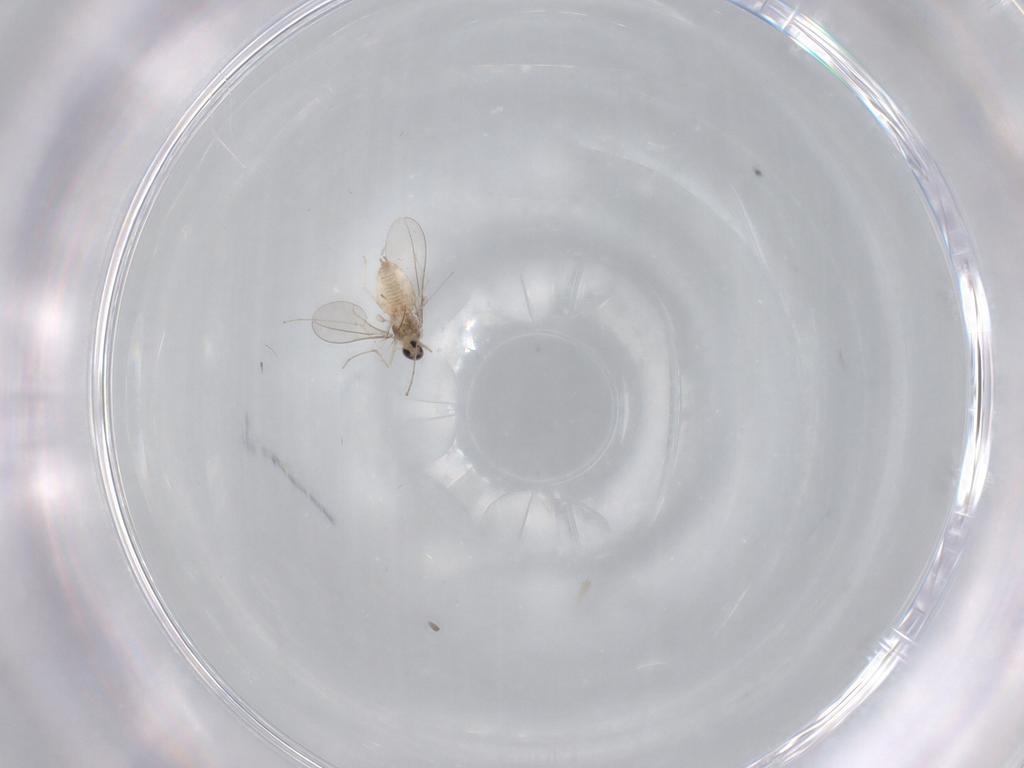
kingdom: Animalia
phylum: Arthropoda
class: Insecta
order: Diptera
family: Cecidomyiidae
